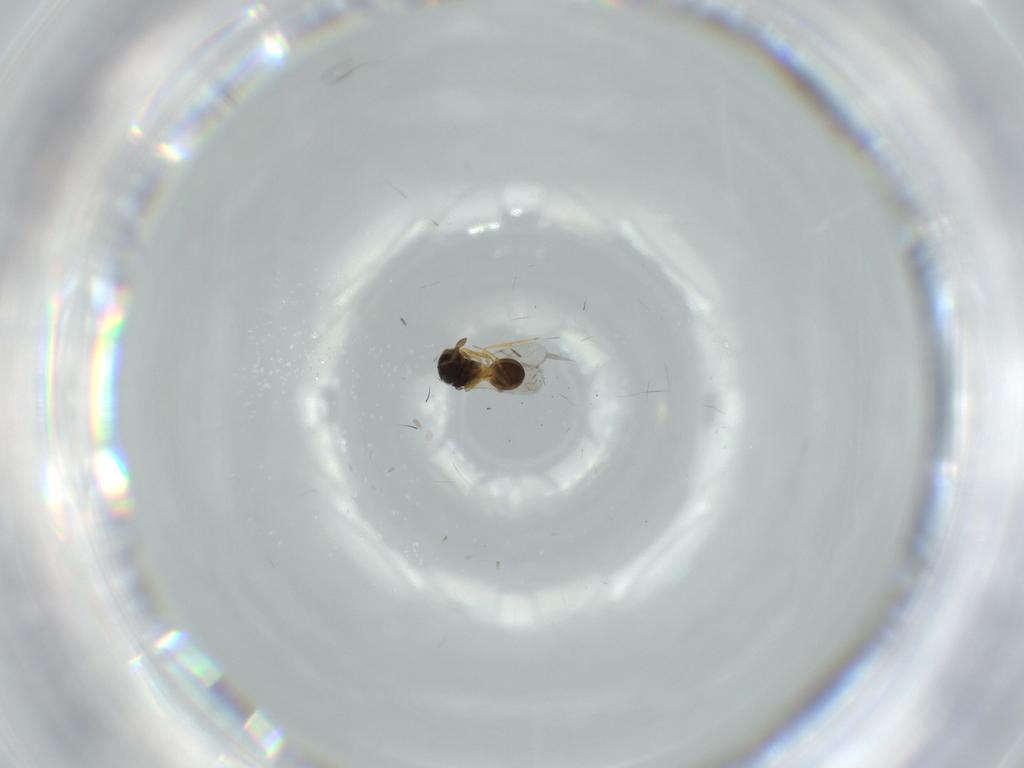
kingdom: Animalia
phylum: Arthropoda
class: Insecta
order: Hymenoptera
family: Scelionidae
